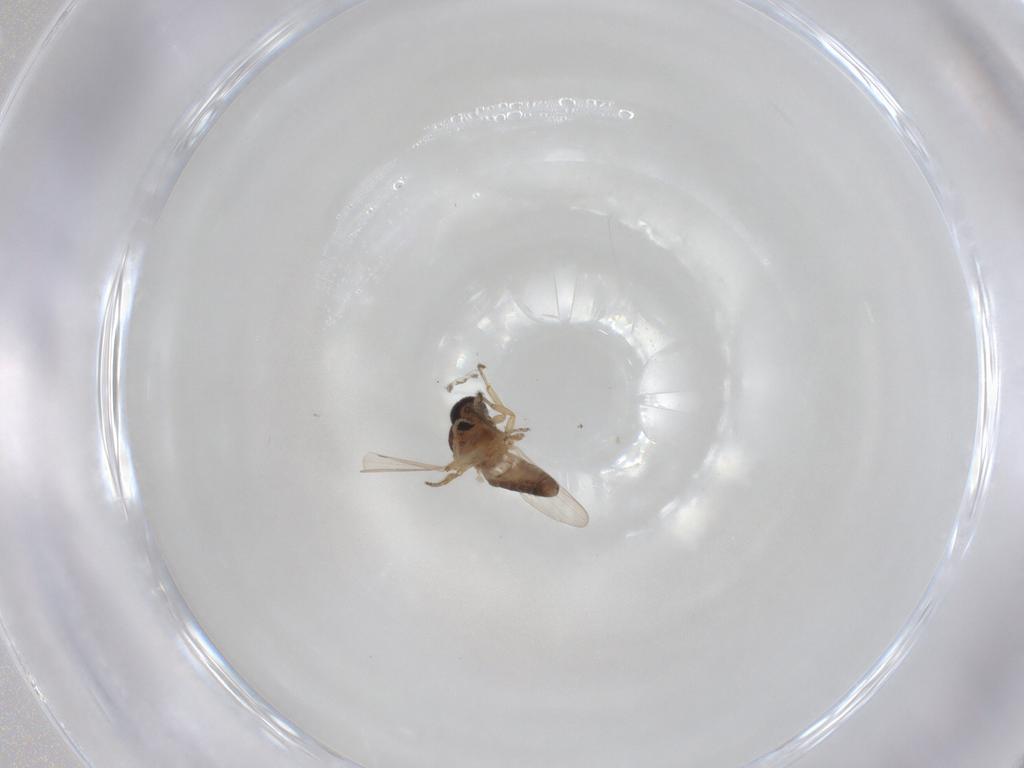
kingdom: Animalia
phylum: Arthropoda
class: Insecta
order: Diptera
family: Ceratopogonidae
